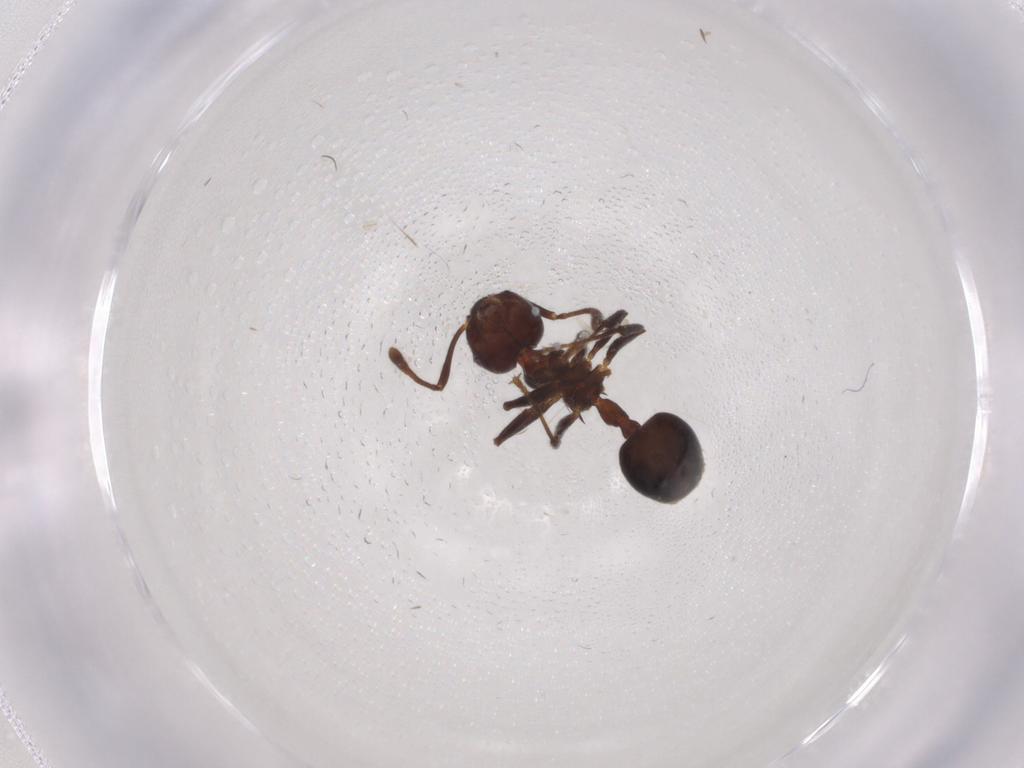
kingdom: Animalia
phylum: Arthropoda
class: Insecta
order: Hymenoptera
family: Formicidae
